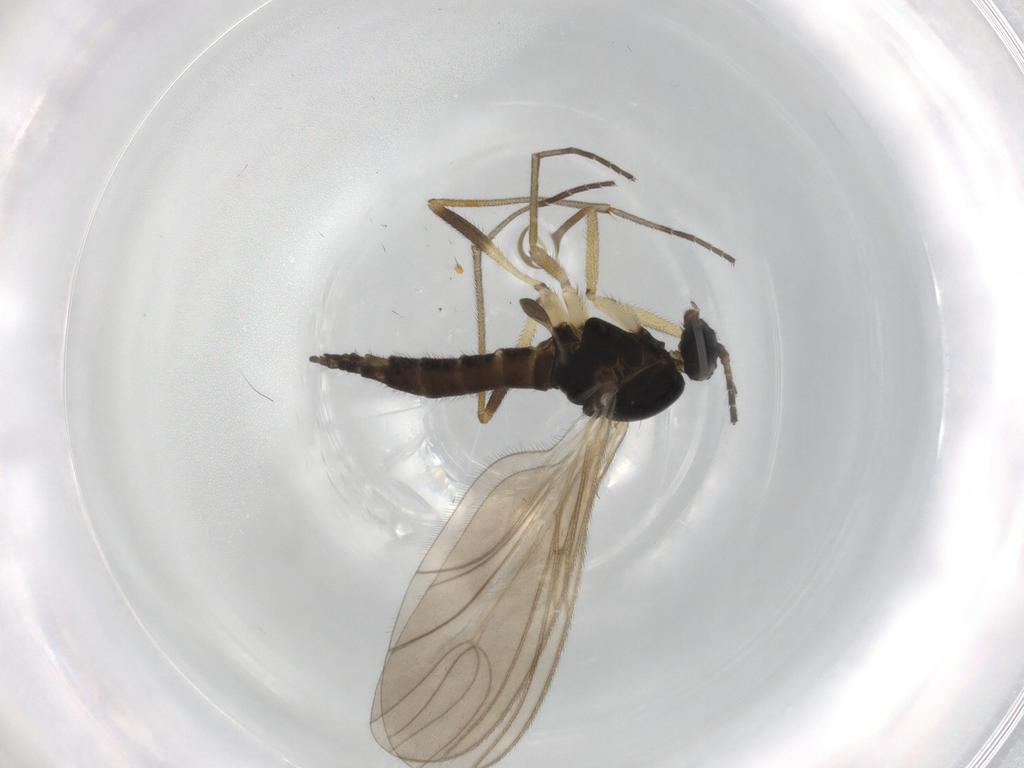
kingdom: Animalia
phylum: Arthropoda
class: Insecta
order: Diptera
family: Sciaridae
